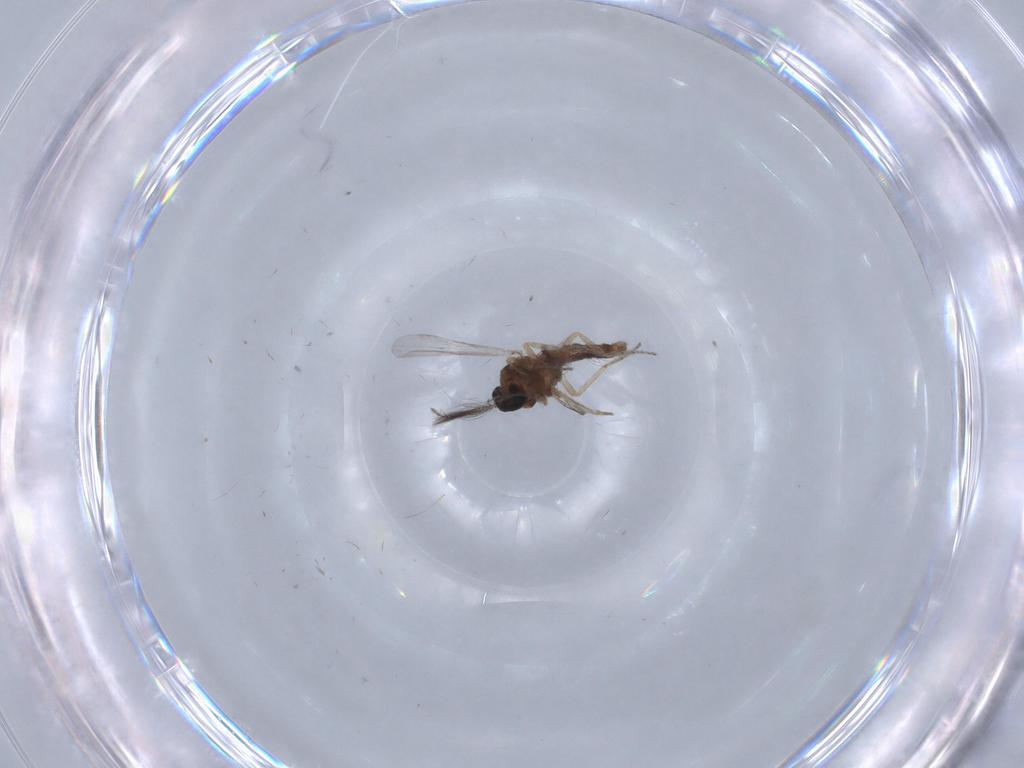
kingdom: Animalia
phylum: Arthropoda
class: Insecta
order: Diptera
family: Ceratopogonidae
